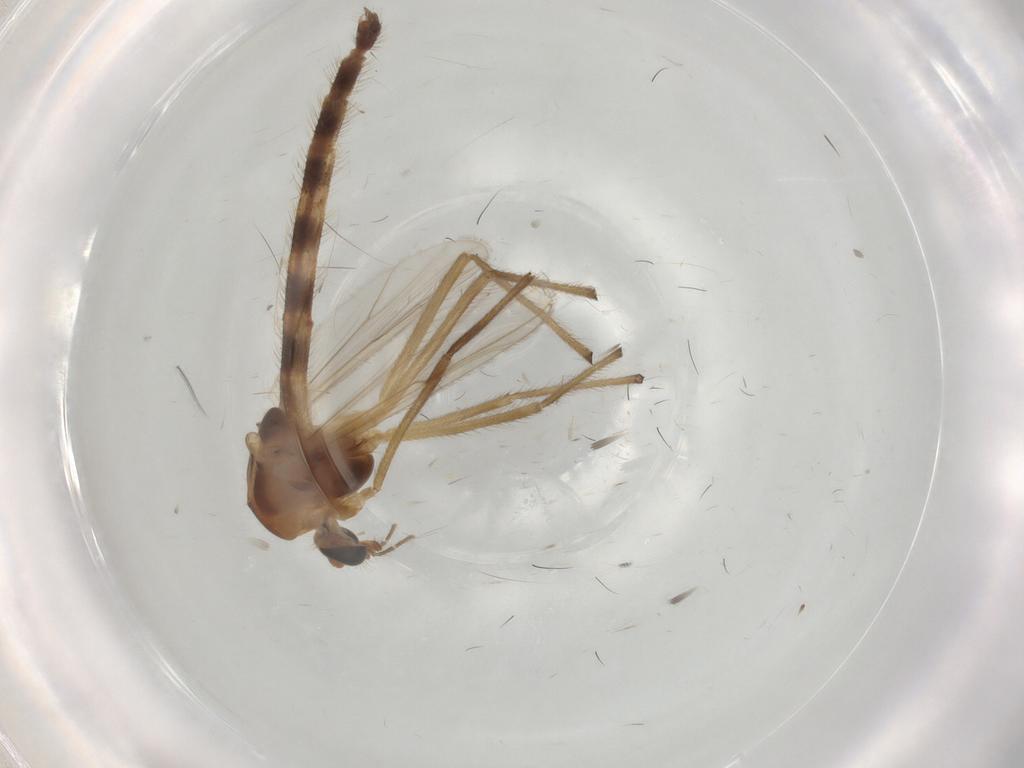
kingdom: Animalia
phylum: Arthropoda
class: Insecta
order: Diptera
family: Chironomidae
